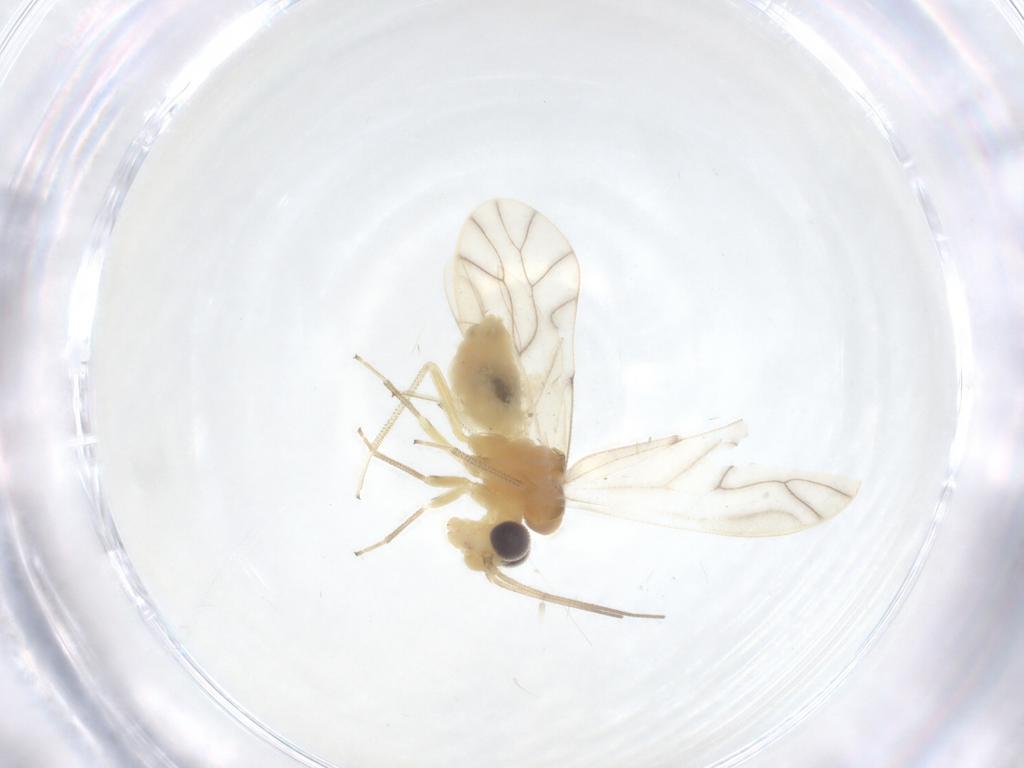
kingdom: Animalia
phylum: Arthropoda
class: Insecta
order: Psocodea
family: Caeciliusidae
